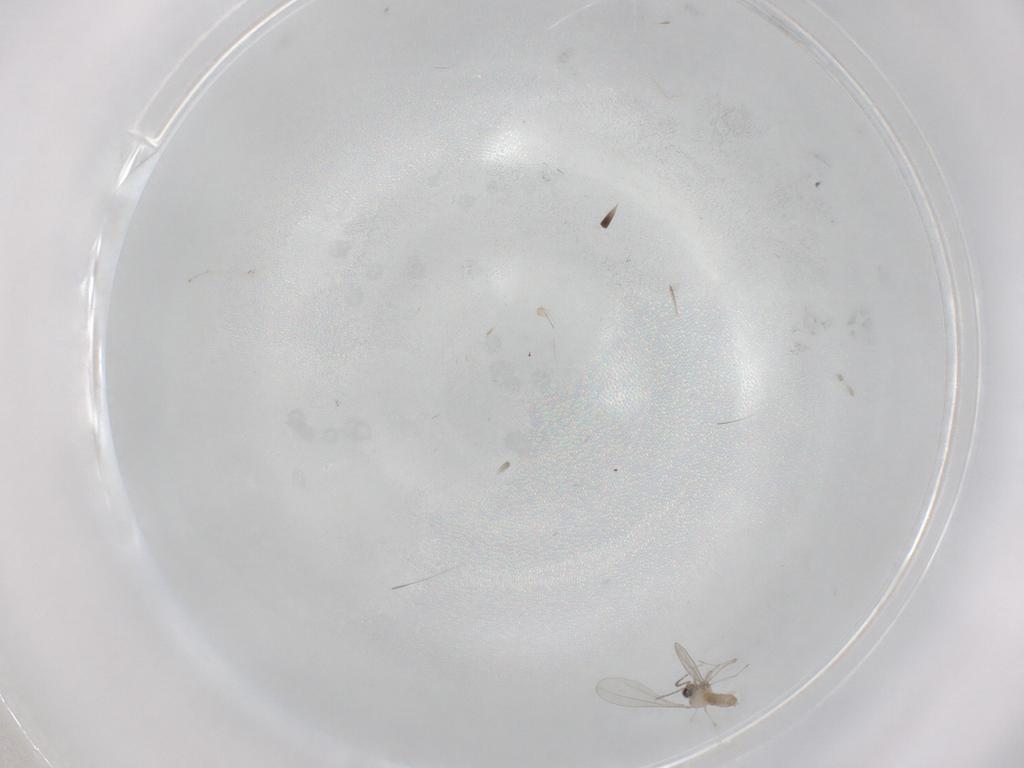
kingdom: Animalia
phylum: Arthropoda
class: Insecta
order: Diptera
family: Cecidomyiidae
